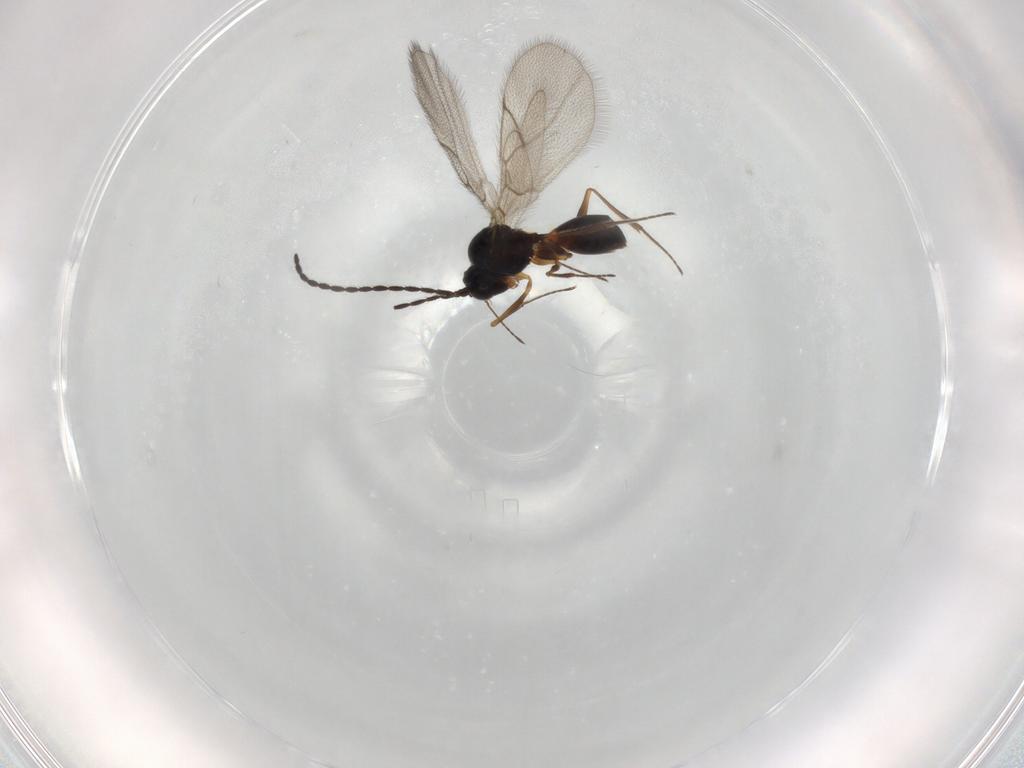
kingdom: Animalia
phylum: Arthropoda
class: Insecta
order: Hymenoptera
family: Figitidae
